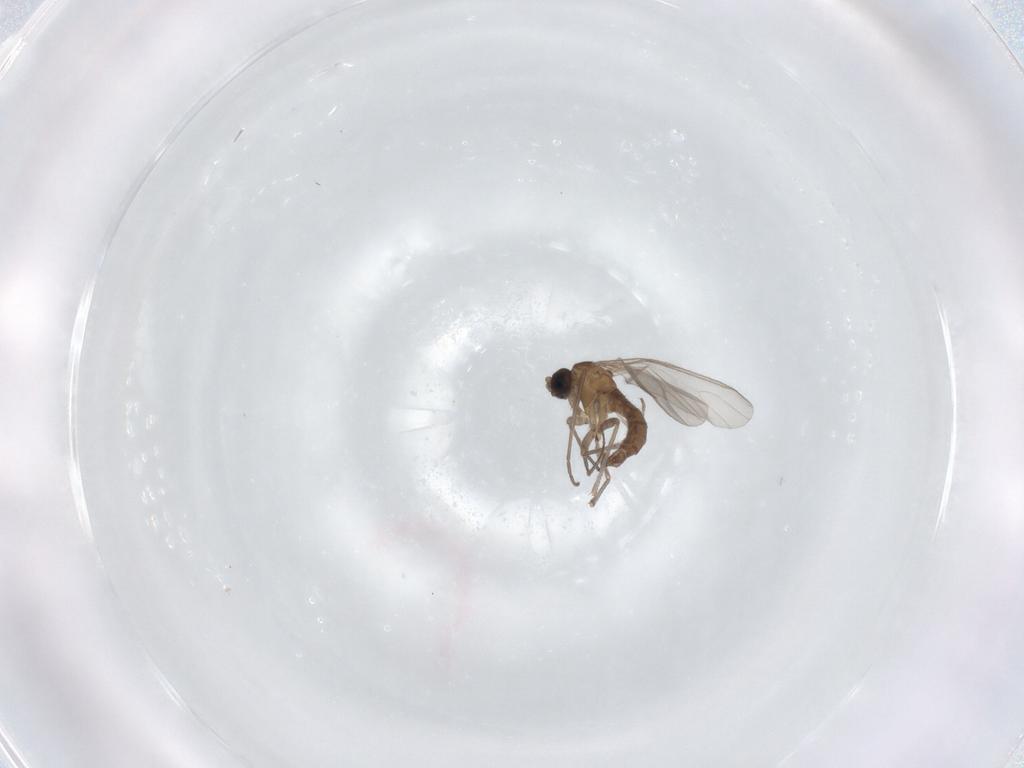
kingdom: Animalia
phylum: Arthropoda
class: Insecta
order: Diptera
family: Sciaridae
